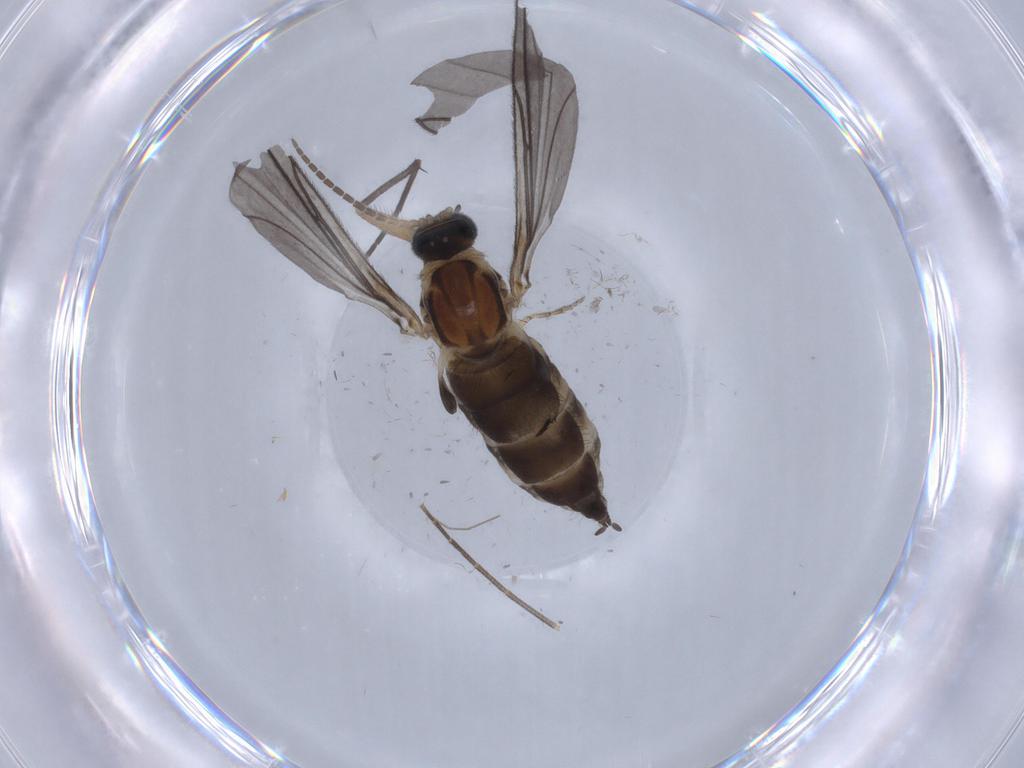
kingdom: Animalia
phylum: Arthropoda
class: Insecta
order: Diptera
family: Sciaridae
